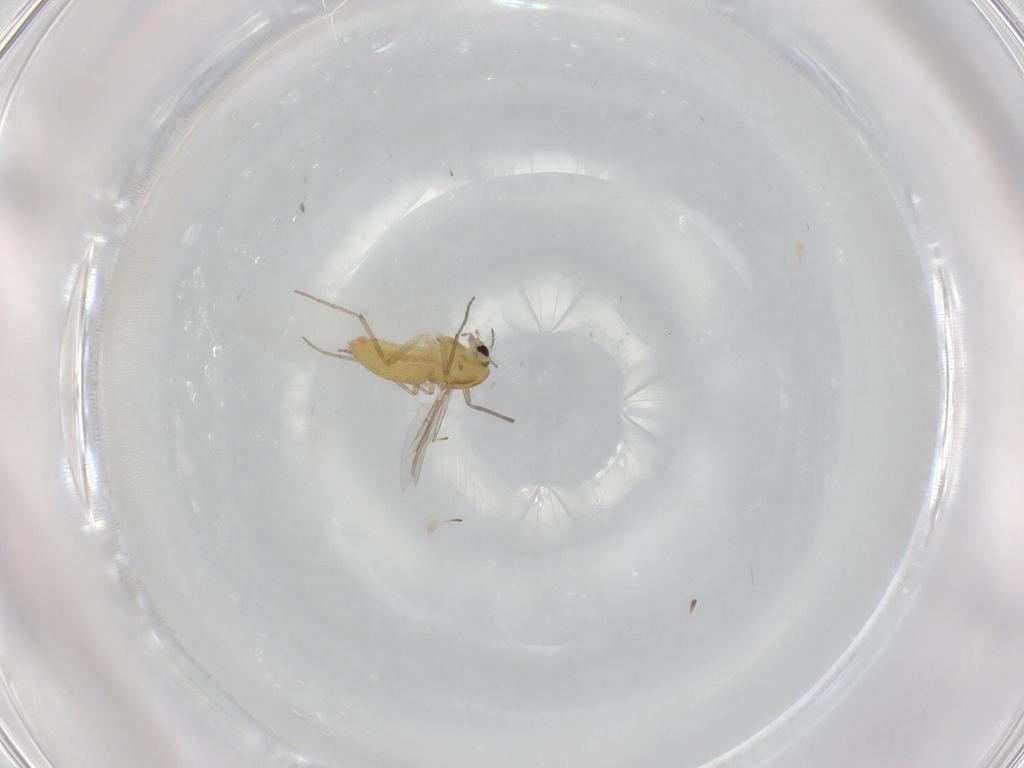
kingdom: Animalia
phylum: Arthropoda
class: Insecta
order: Diptera
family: Chironomidae
